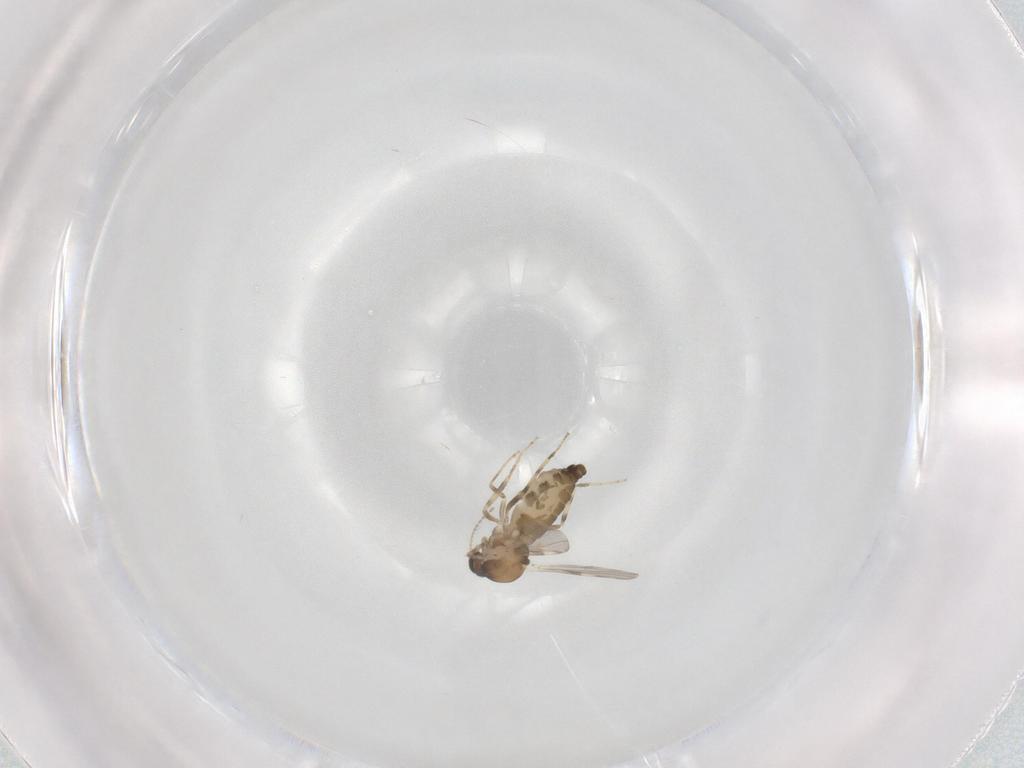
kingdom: Animalia
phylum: Arthropoda
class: Insecta
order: Diptera
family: Ceratopogonidae
